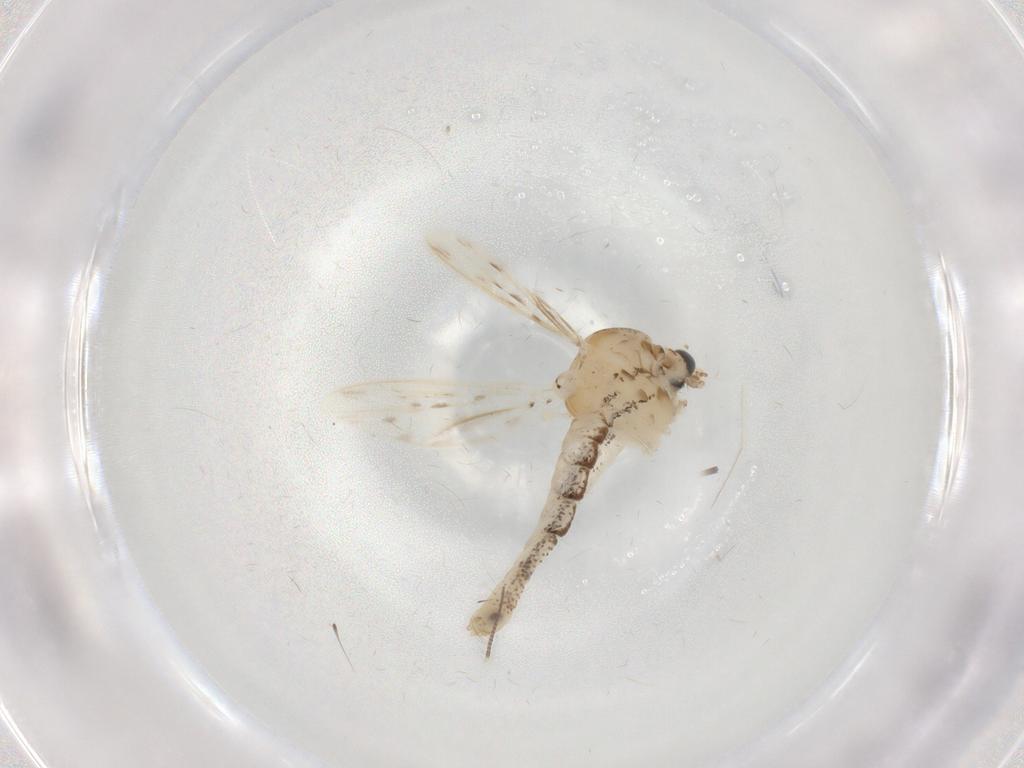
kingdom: Animalia
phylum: Arthropoda
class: Insecta
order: Diptera
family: Chaoboridae
